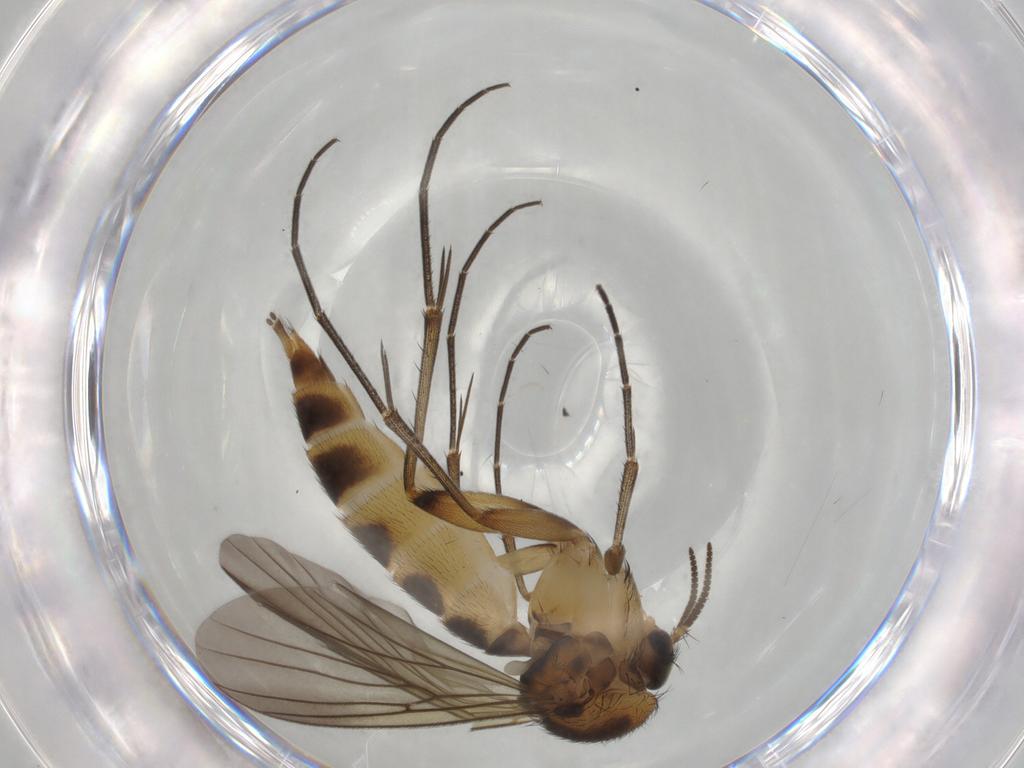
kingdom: Animalia
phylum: Arthropoda
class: Insecta
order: Diptera
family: Mycetophilidae
